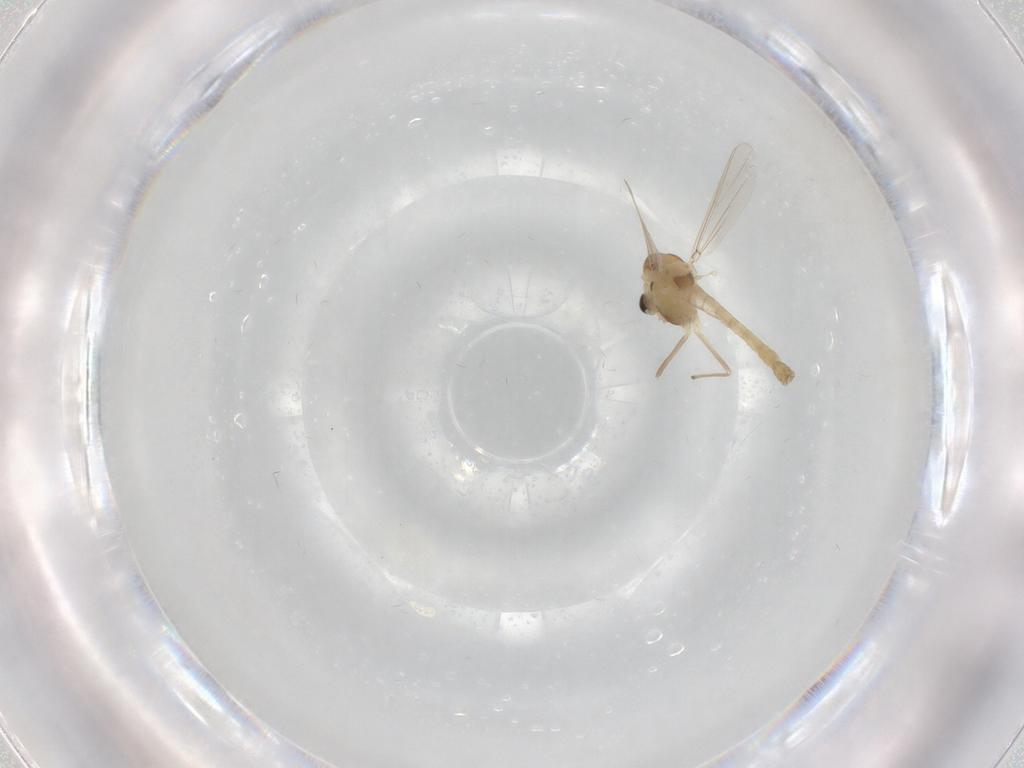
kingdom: Animalia
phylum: Arthropoda
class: Insecta
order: Diptera
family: Chironomidae
